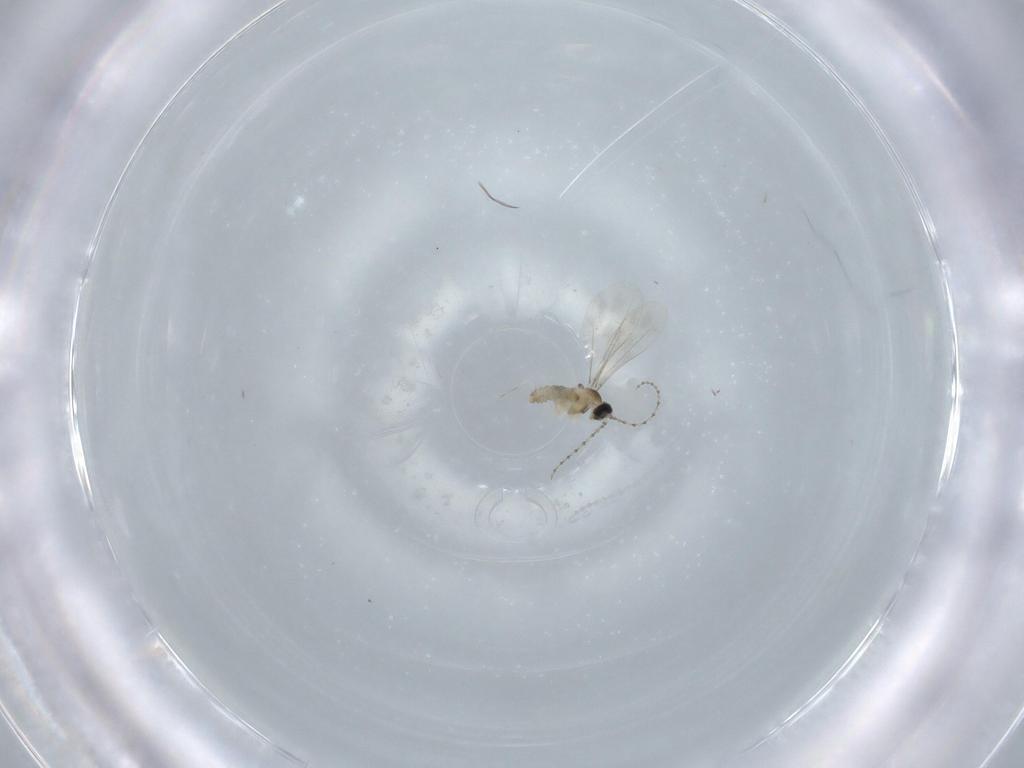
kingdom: Animalia
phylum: Arthropoda
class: Insecta
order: Diptera
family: Cecidomyiidae
